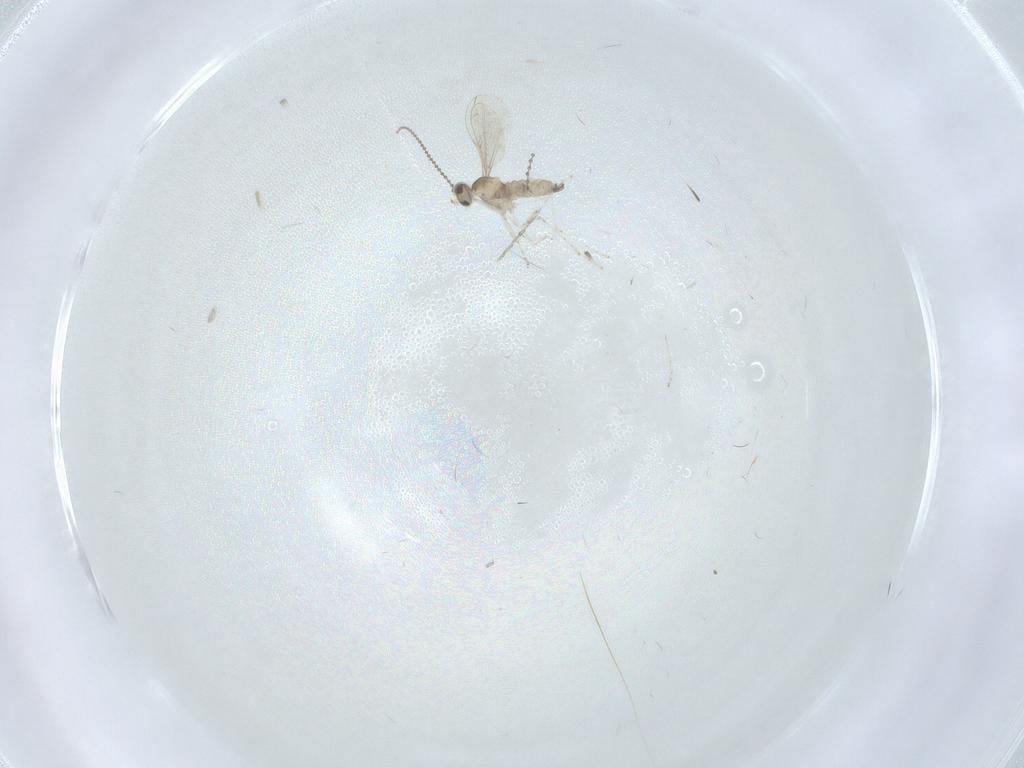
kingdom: Animalia
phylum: Arthropoda
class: Insecta
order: Diptera
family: Cecidomyiidae
